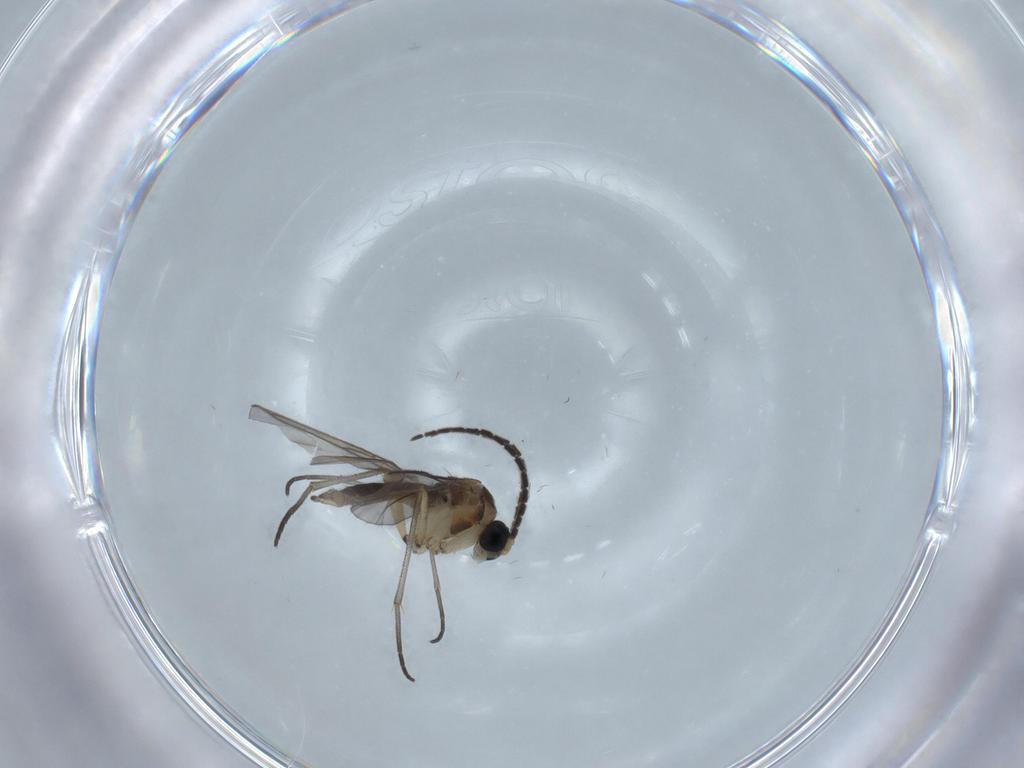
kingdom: Animalia
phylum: Arthropoda
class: Insecta
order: Diptera
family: Sciaridae
